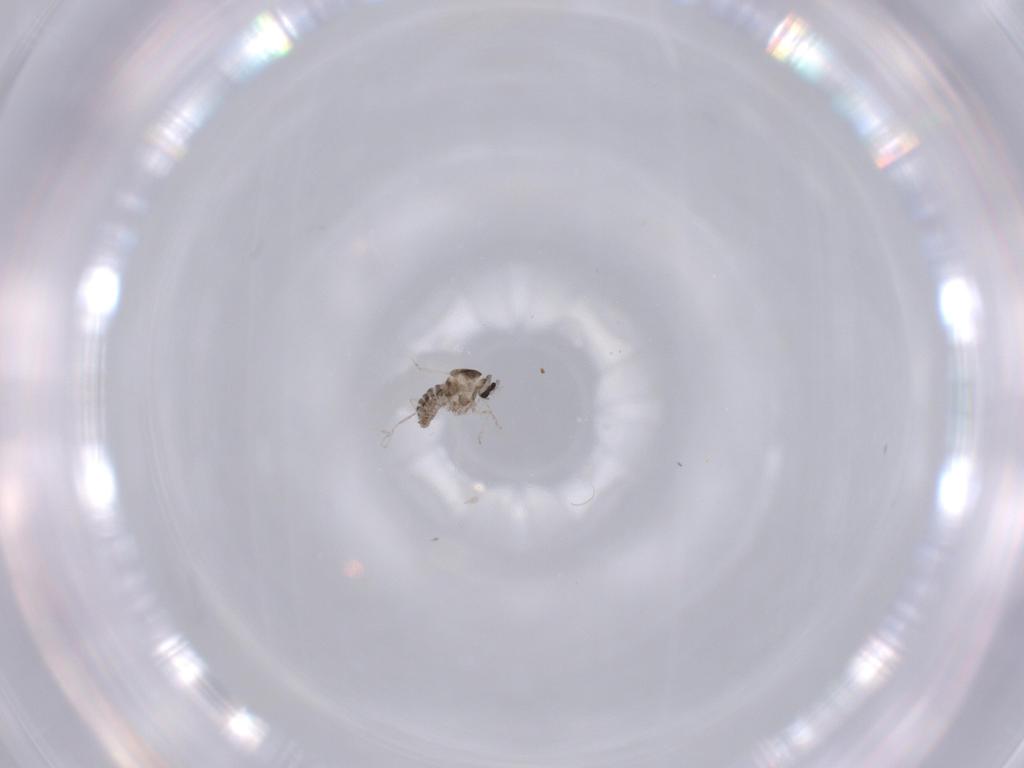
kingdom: Animalia
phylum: Arthropoda
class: Insecta
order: Diptera
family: Cecidomyiidae
